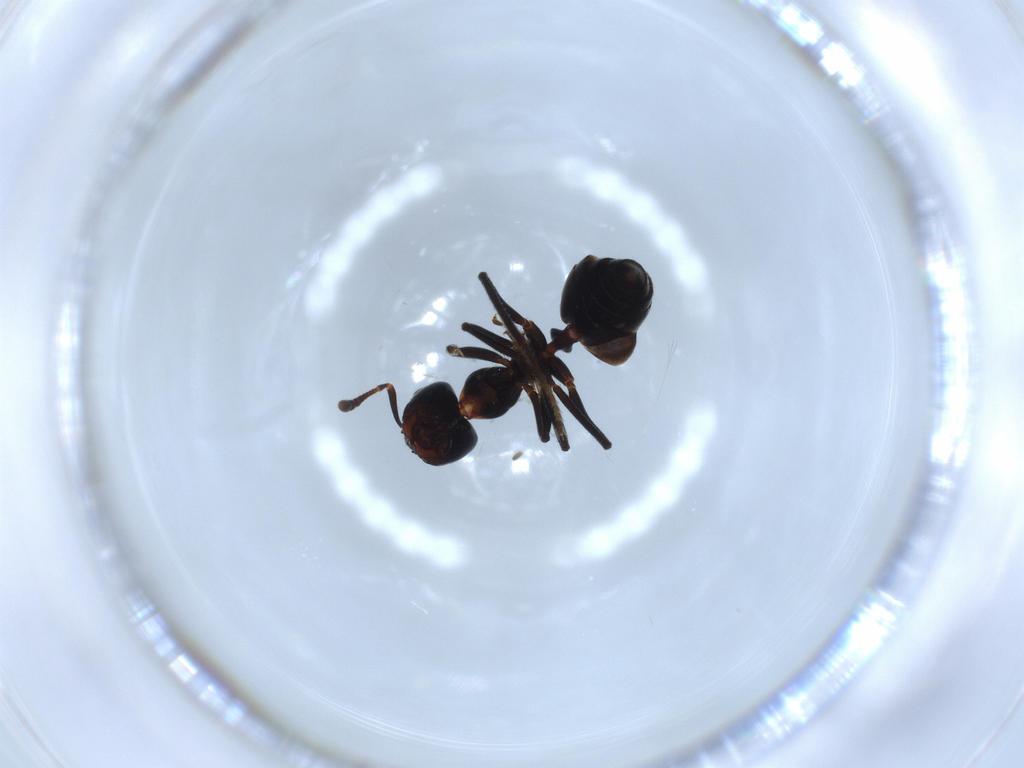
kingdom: Animalia
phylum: Arthropoda
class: Insecta
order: Hymenoptera
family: Formicidae
